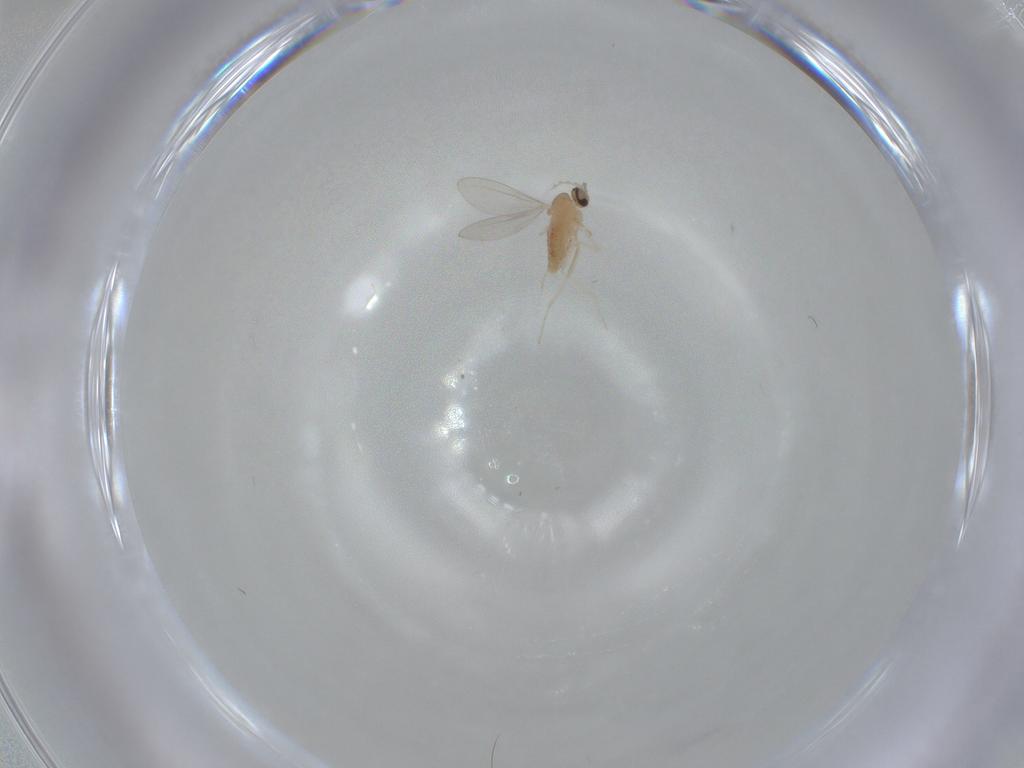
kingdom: Animalia
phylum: Arthropoda
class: Insecta
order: Diptera
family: Cecidomyiidae
